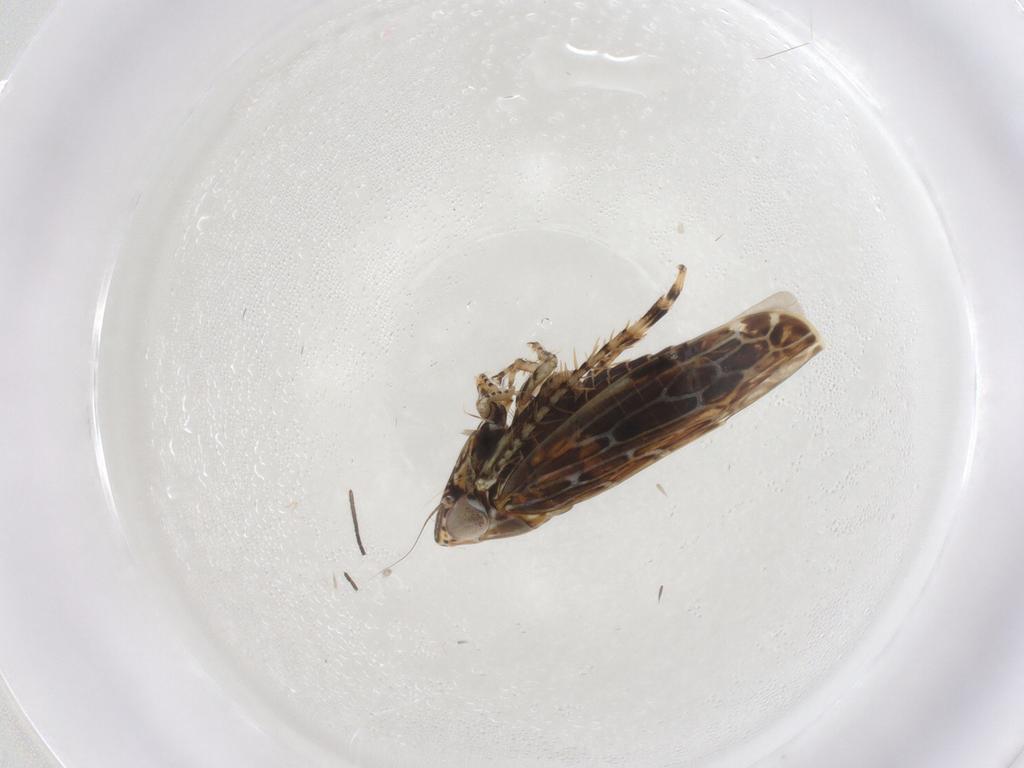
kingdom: Animalia
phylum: Arthropoda
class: Insecta
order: Hemiptera
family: Cicadellidae
